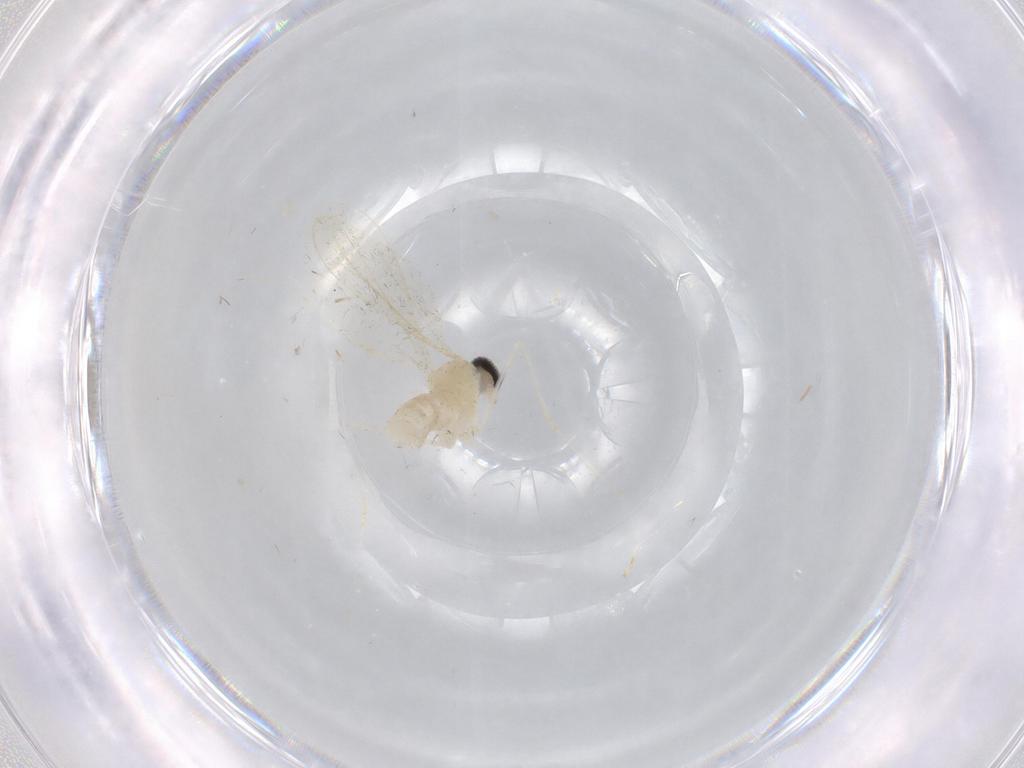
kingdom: Animalia
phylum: Arthropoda
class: Insecta
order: Diptera
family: Cecidomyiidae
